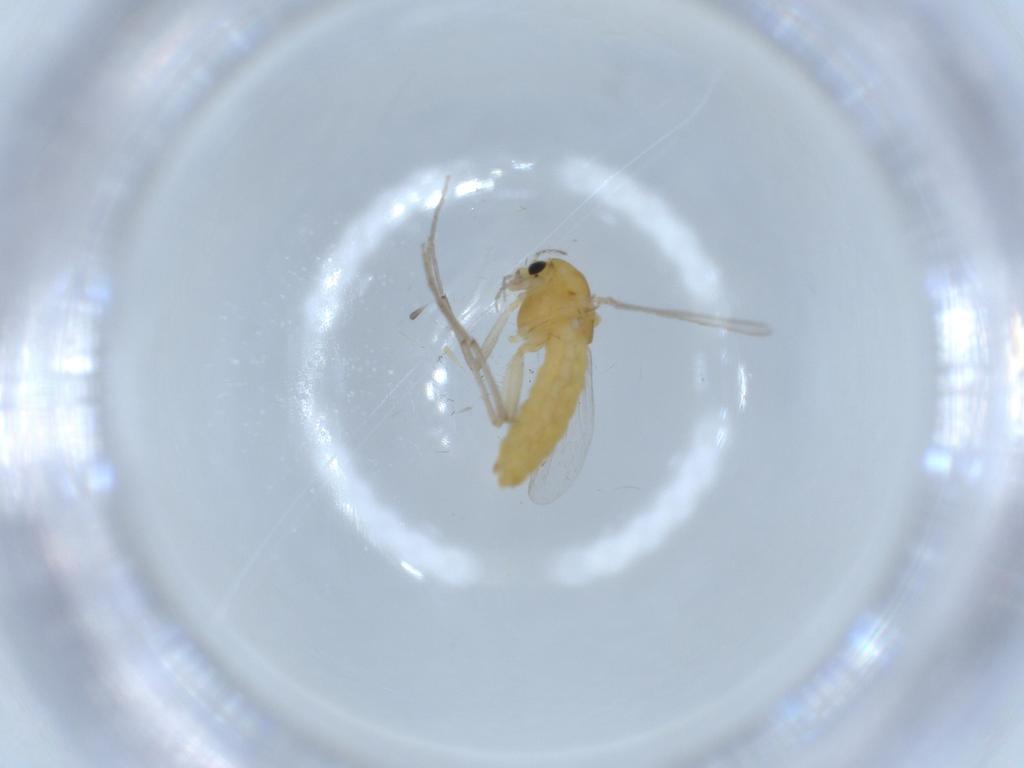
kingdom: Animalia
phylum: Arthropoda
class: Insecta
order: Diptera
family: Chironomidae
